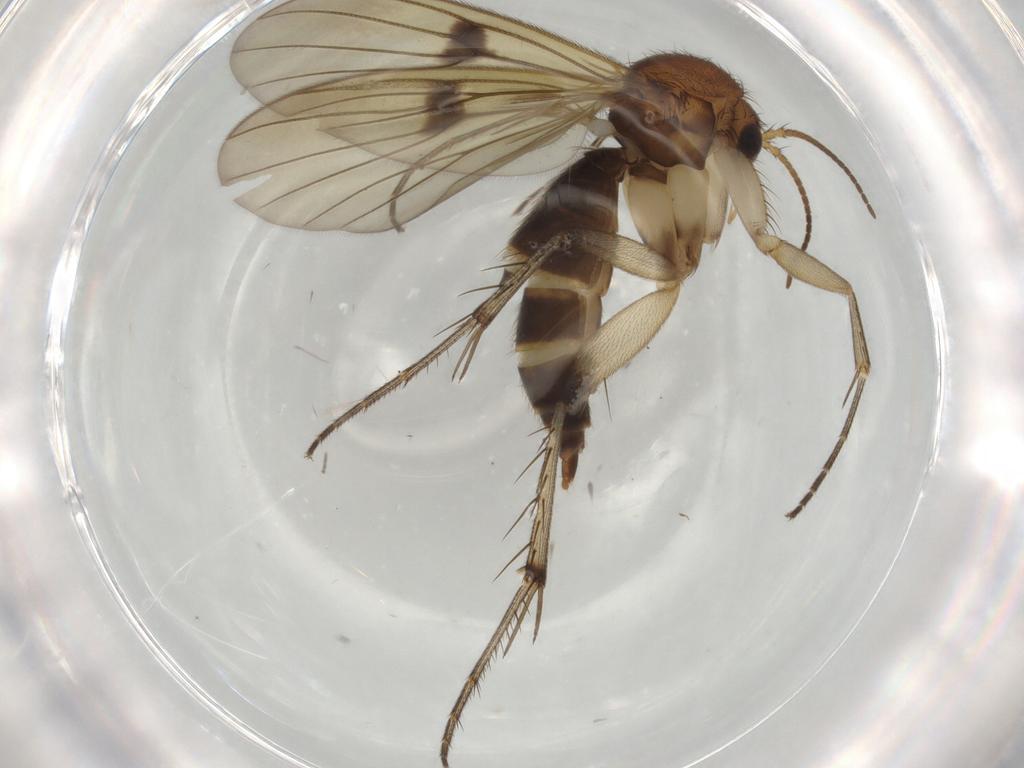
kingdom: Animalia
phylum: Arthropoda
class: Insecta
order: Diptera
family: Mycetophilidae
